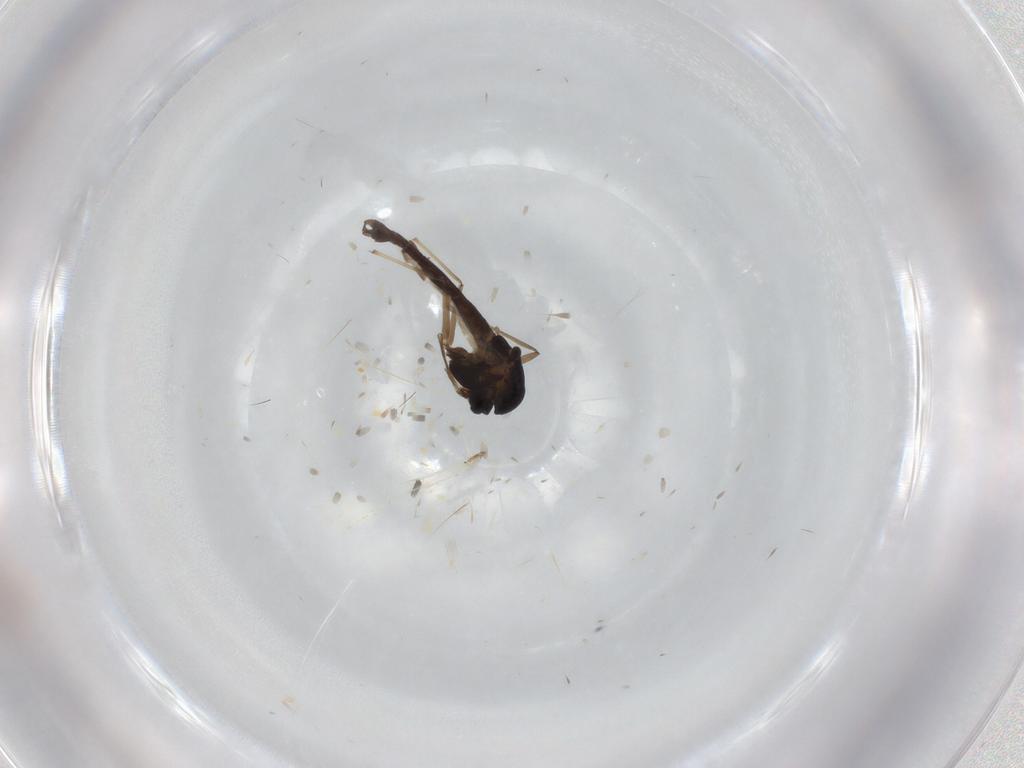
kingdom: Animalia
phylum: Arthropoda
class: Insecta
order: Diptera
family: Chironomidae
